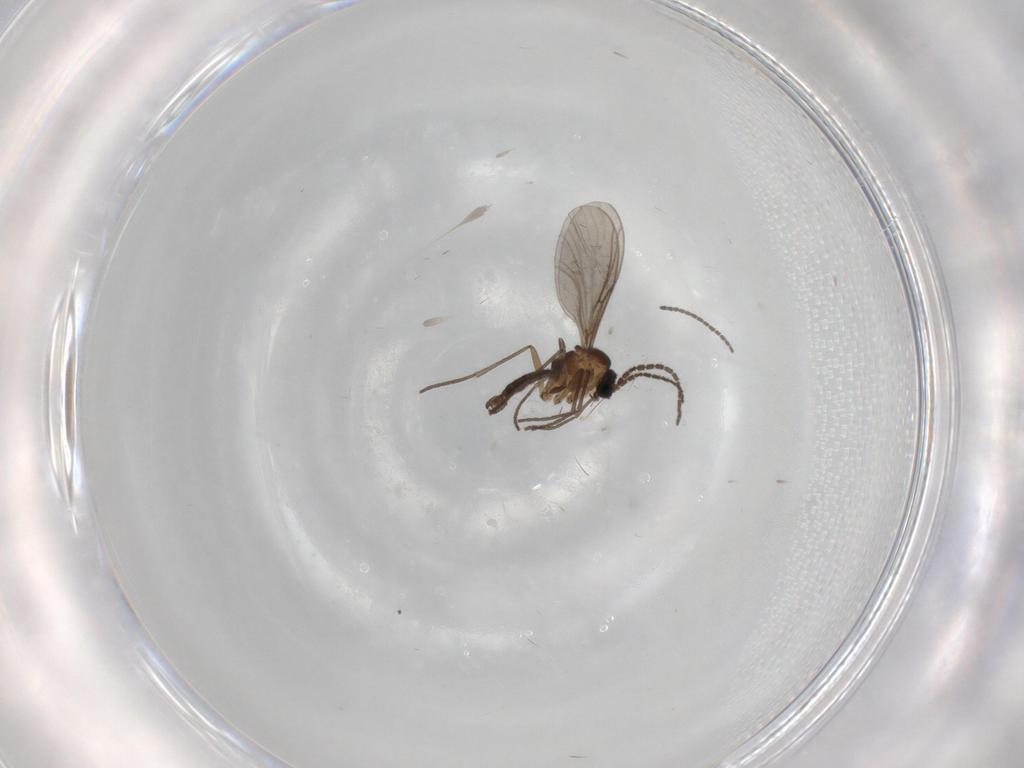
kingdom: Animalia
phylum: Arthropoda
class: Insecta
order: Diptera
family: Sciaridae
